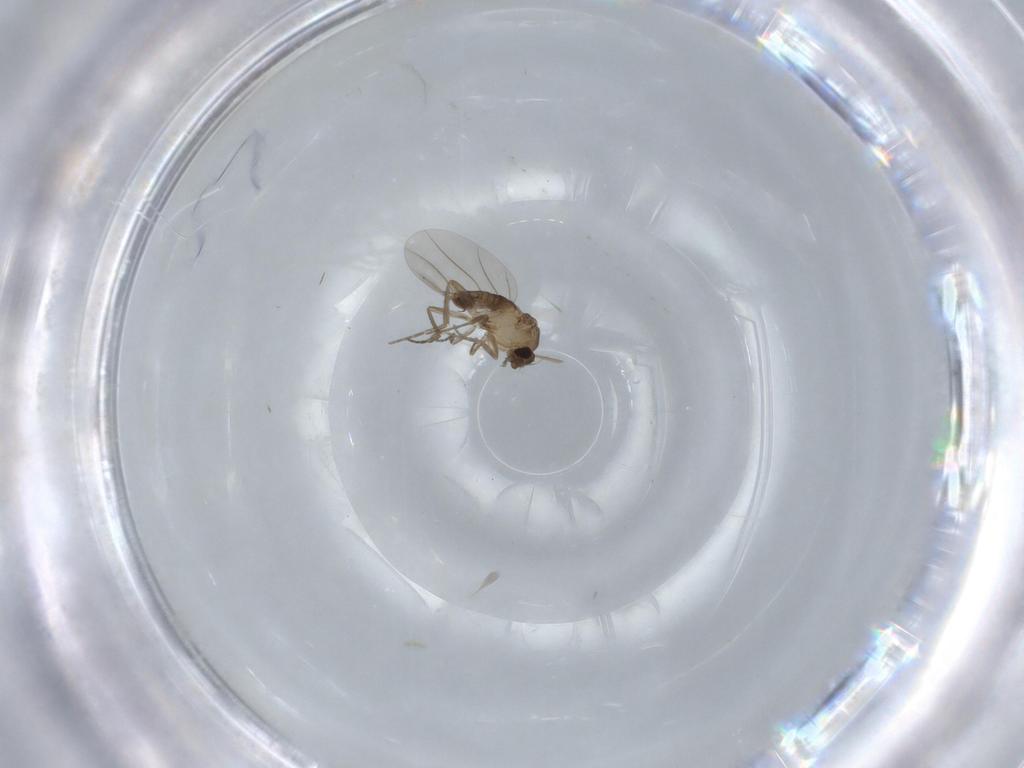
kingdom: Animalia
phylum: Arthropoda
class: Insecta
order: Diptera
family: Phoridae
